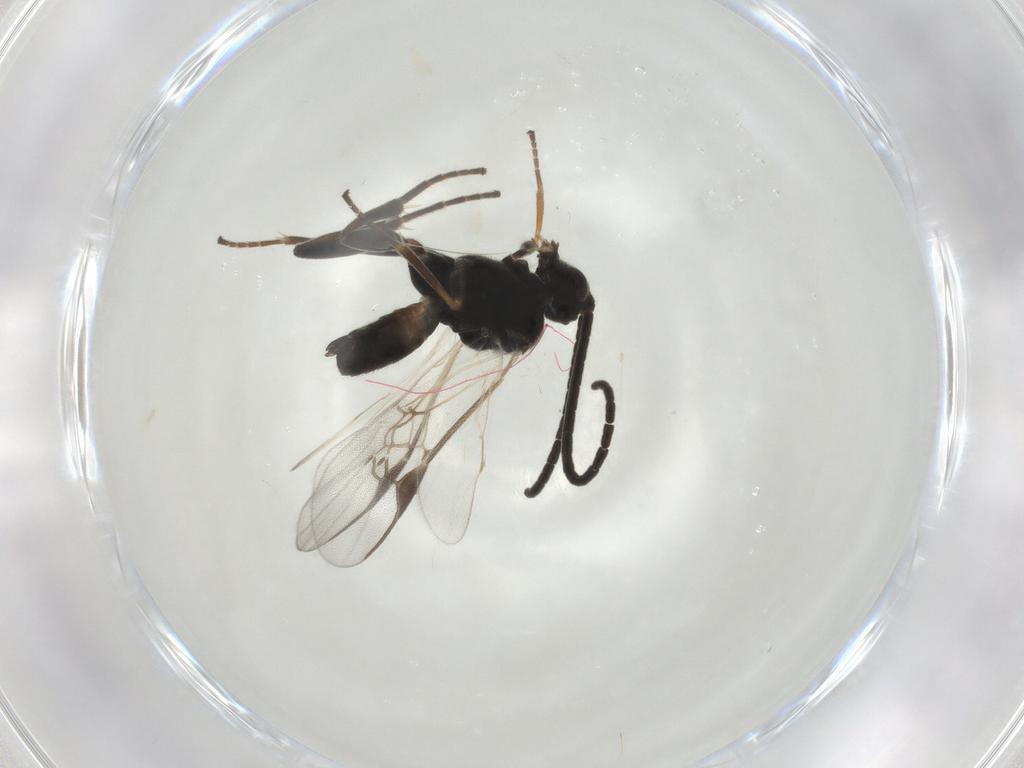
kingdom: Animalia
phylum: Arthropoda
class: Insecta
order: Hymenoptera
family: Braconidae
